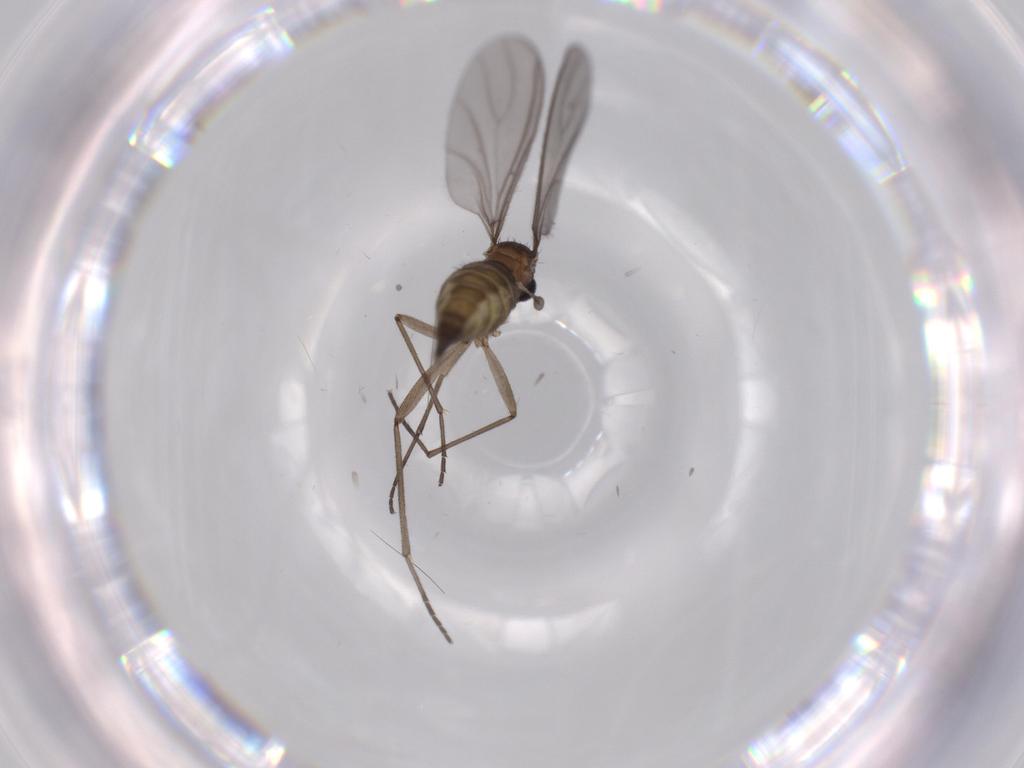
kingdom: Animalia
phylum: Arthropoda
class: Insecta
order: Diptera
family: Sciaridae
